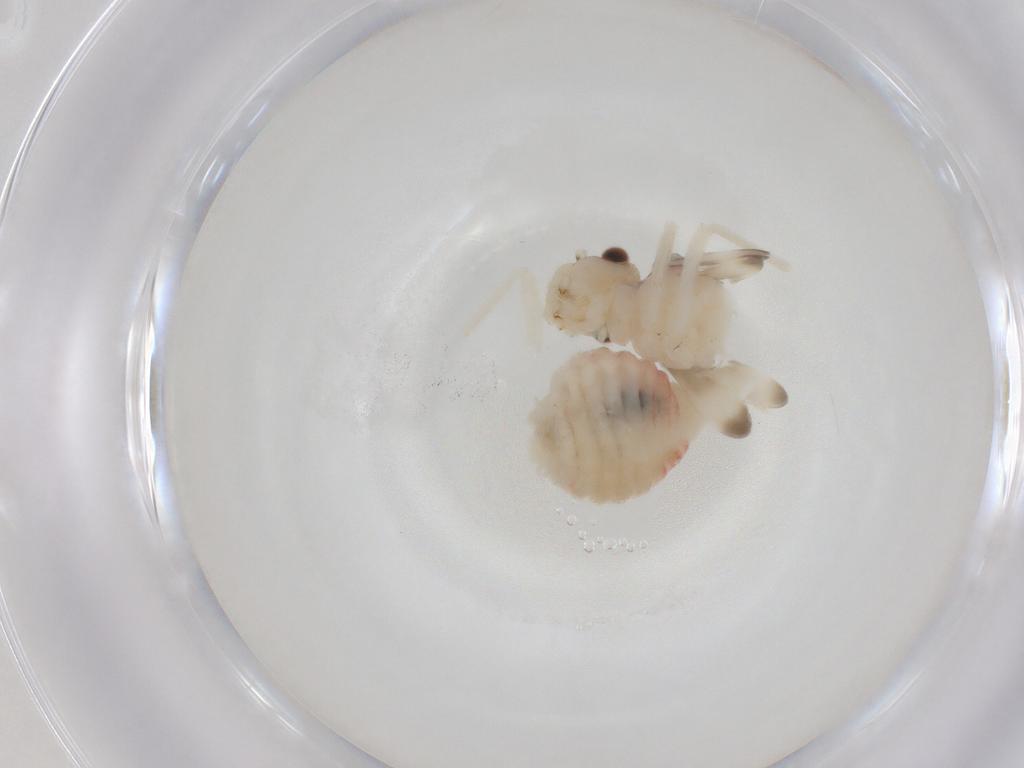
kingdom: Animalia
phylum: Arthropoda
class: Insecta
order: Psocodea
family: Amphipsocidae
